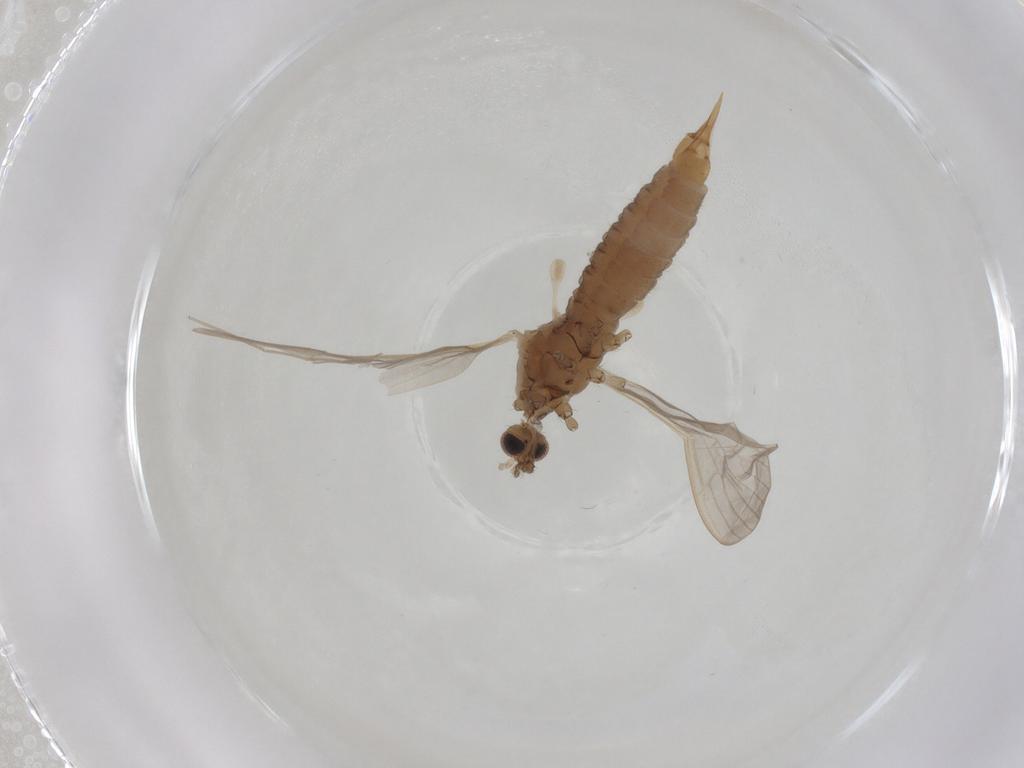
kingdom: Animalia
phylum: Arthropoda
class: Insecta
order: Diptera
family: Limoniidae
